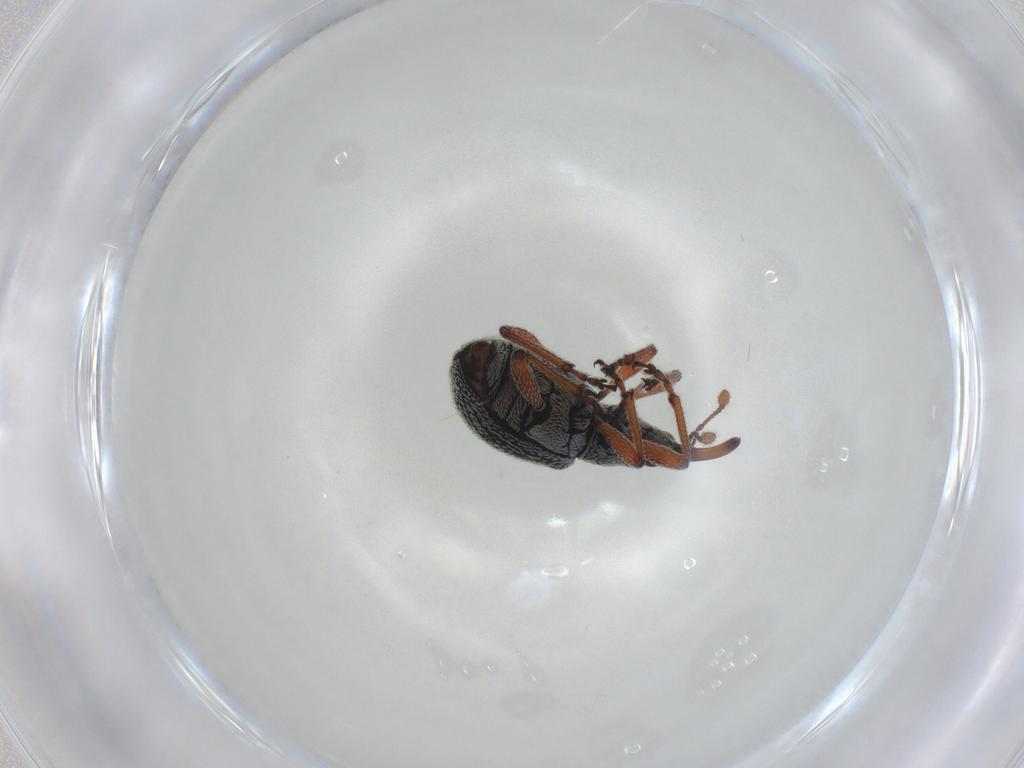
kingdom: Animalia
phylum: Arthropoda
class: Insecta
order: Coleoptera
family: Brentidae
